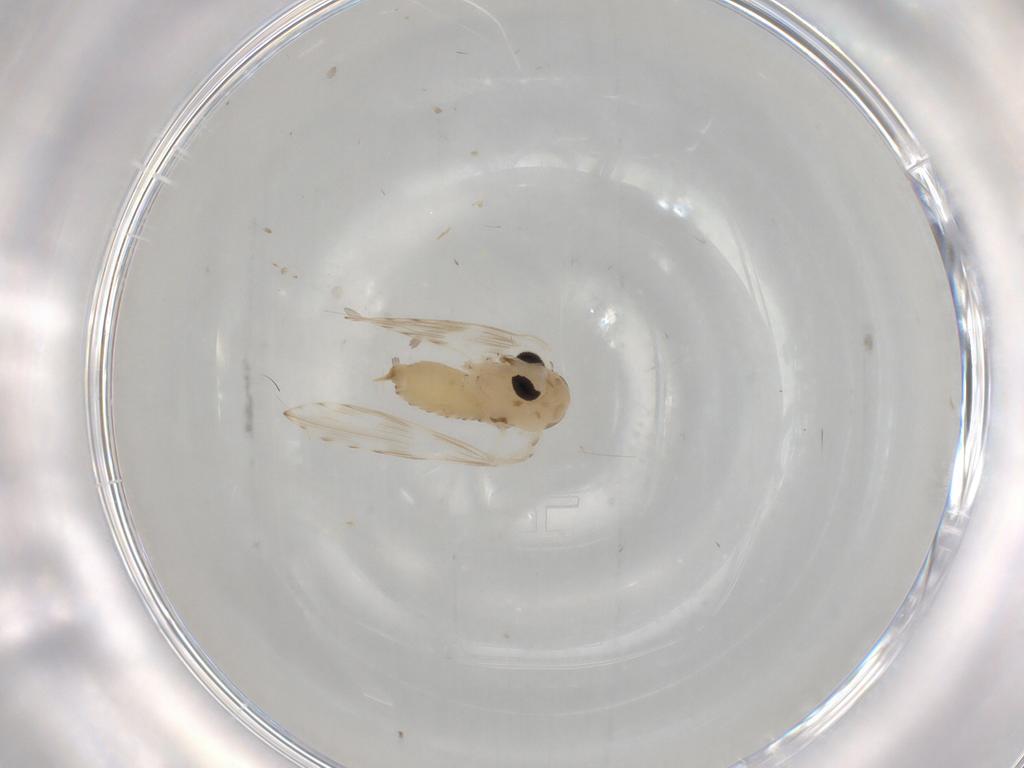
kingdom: Animalia
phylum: Arthropoda
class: Insecta
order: Diptera
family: Psychodidae
